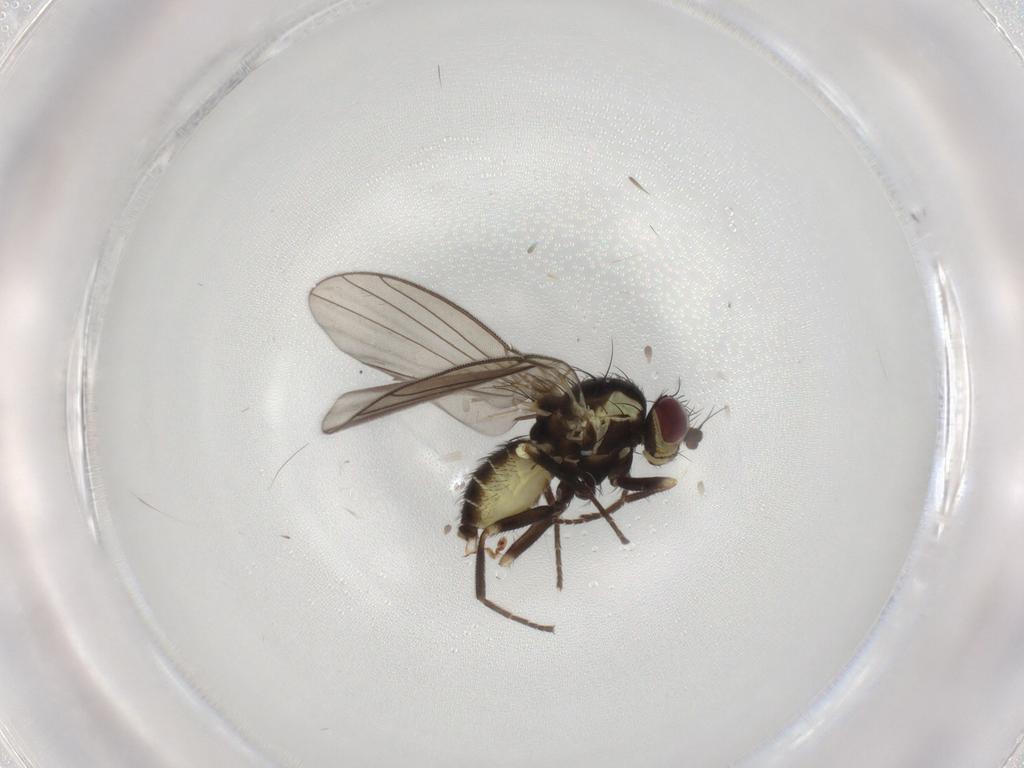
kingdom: Animalia
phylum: Arthropoda
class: Insecta
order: Diptera
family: Agromyzidae
